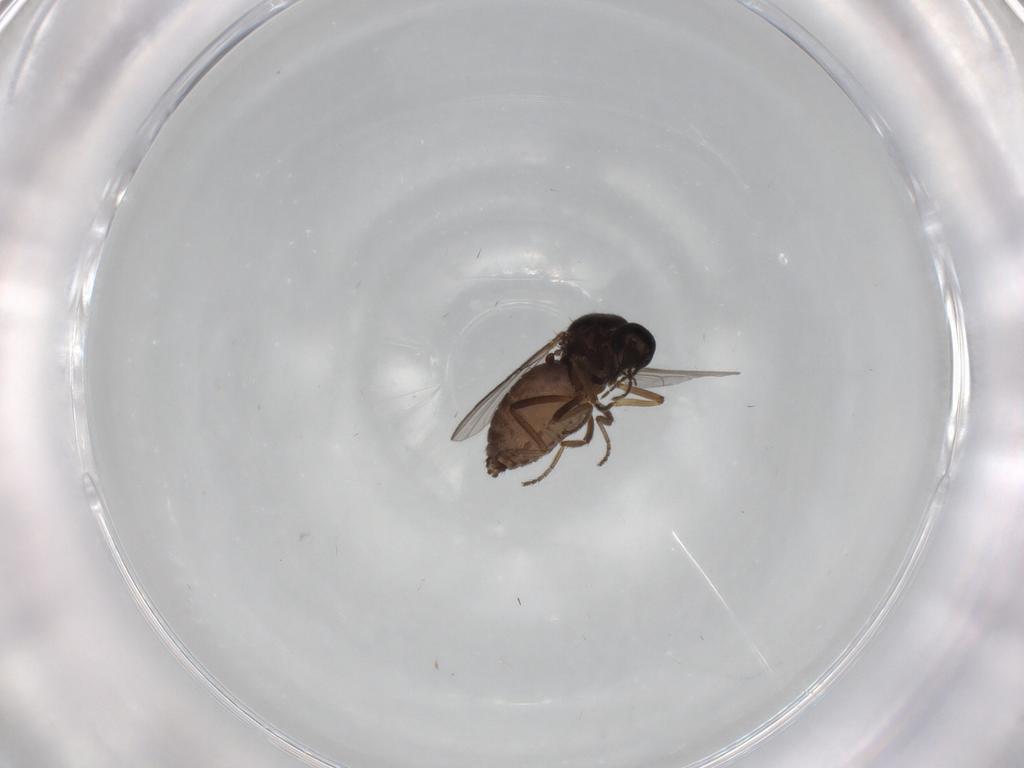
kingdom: Animalia
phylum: Arthropoda
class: Insecta
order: Diptera
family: Ceratopogonidae
